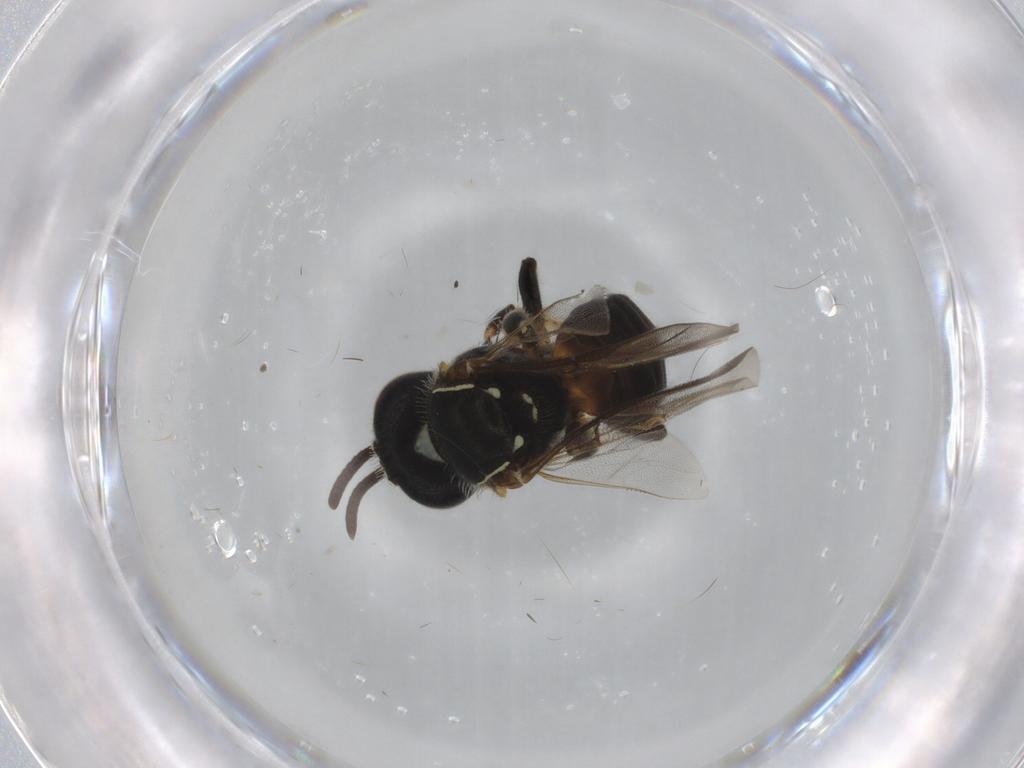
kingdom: Animalia
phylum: Arthropoda
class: Insecta
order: Hymenoptera
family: Apidae
